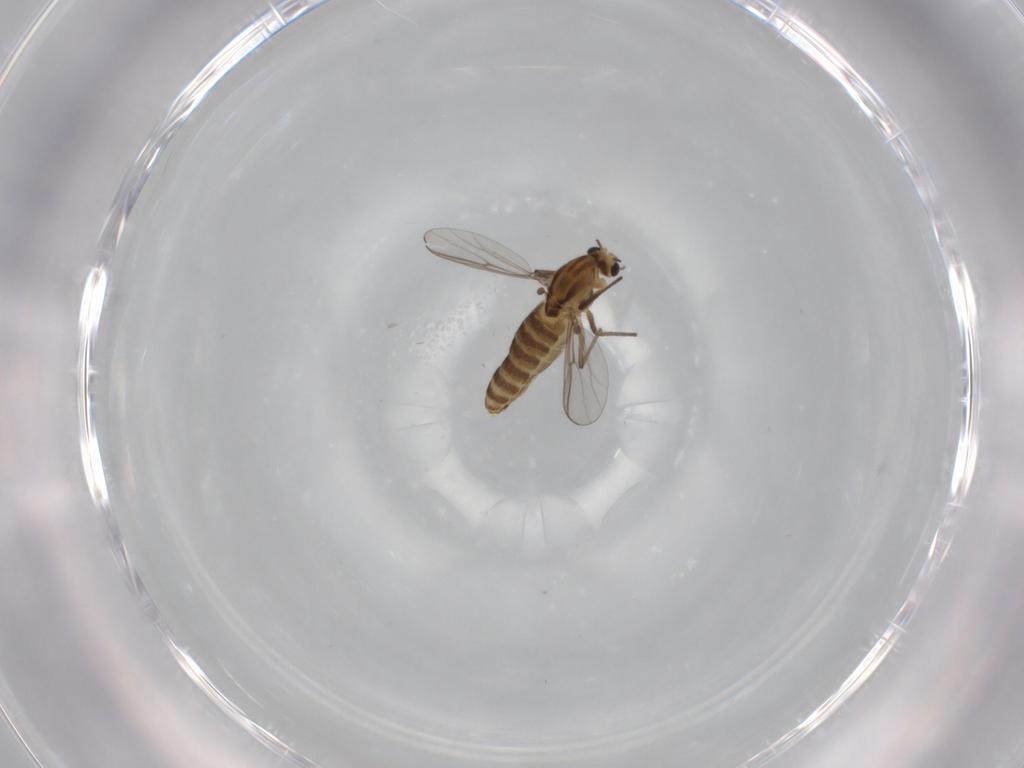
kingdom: Animalia
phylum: Arthropoda
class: Insecta
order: Diptera
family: Chironomidae
